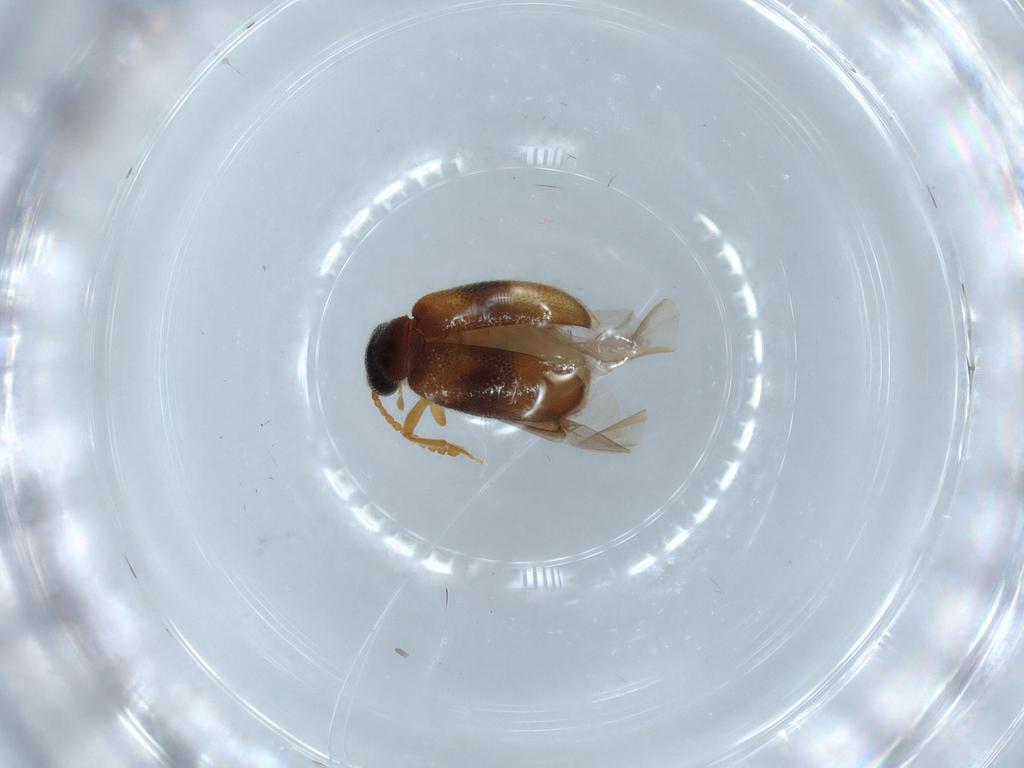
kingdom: Animalia
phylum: Arthropoda
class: Insecta
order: Coleoptera
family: Aderidae
